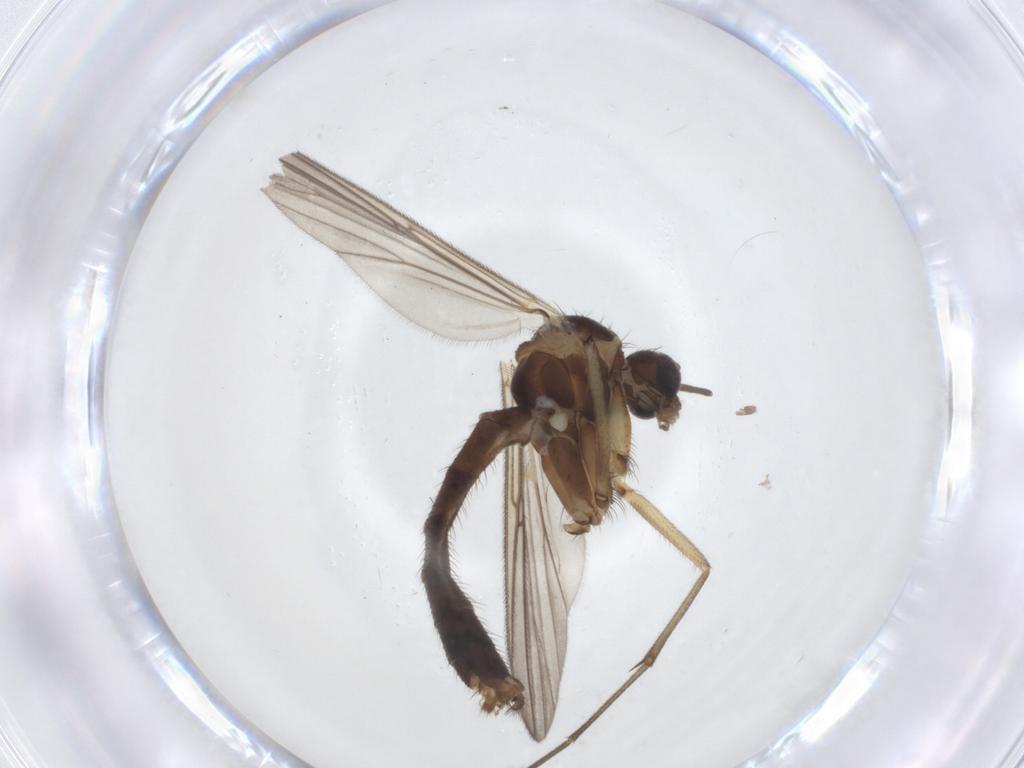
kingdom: Animalia
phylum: Arthropoda
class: Insecta
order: Diptera
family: Mycetophilidae
